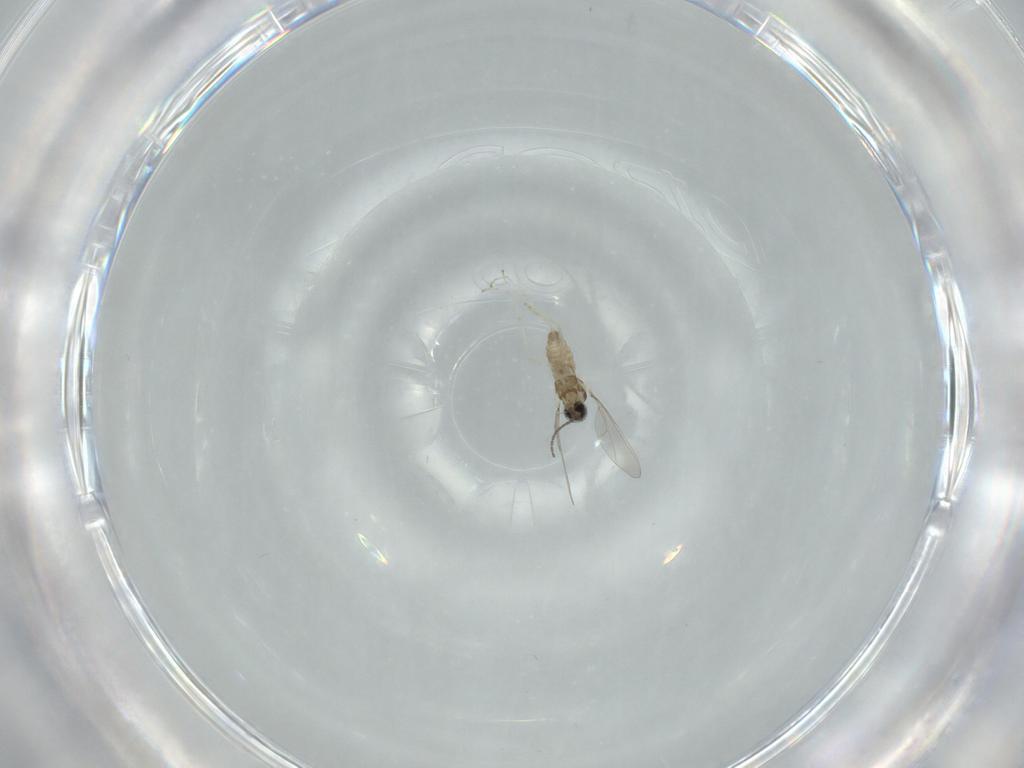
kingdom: Animalia
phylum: Arthropoda
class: Insecta
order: Diptera
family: Cecidomyiidae
